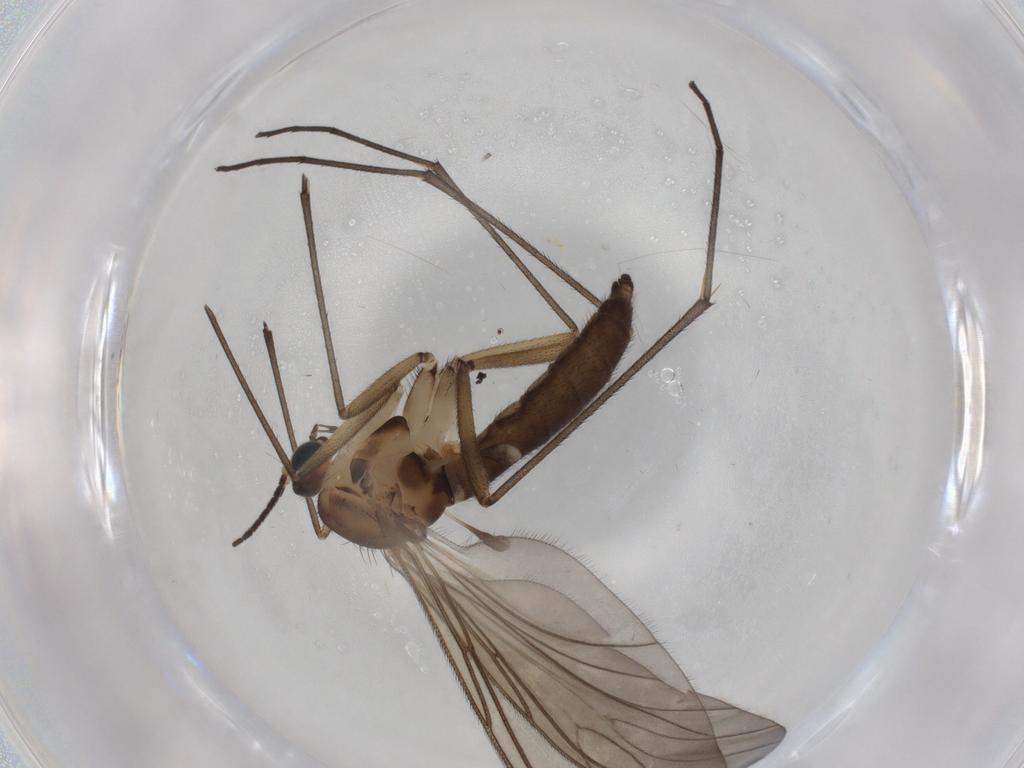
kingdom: Animalia
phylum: Arthropoda
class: Insecta
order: Diptera
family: Sciaridae
